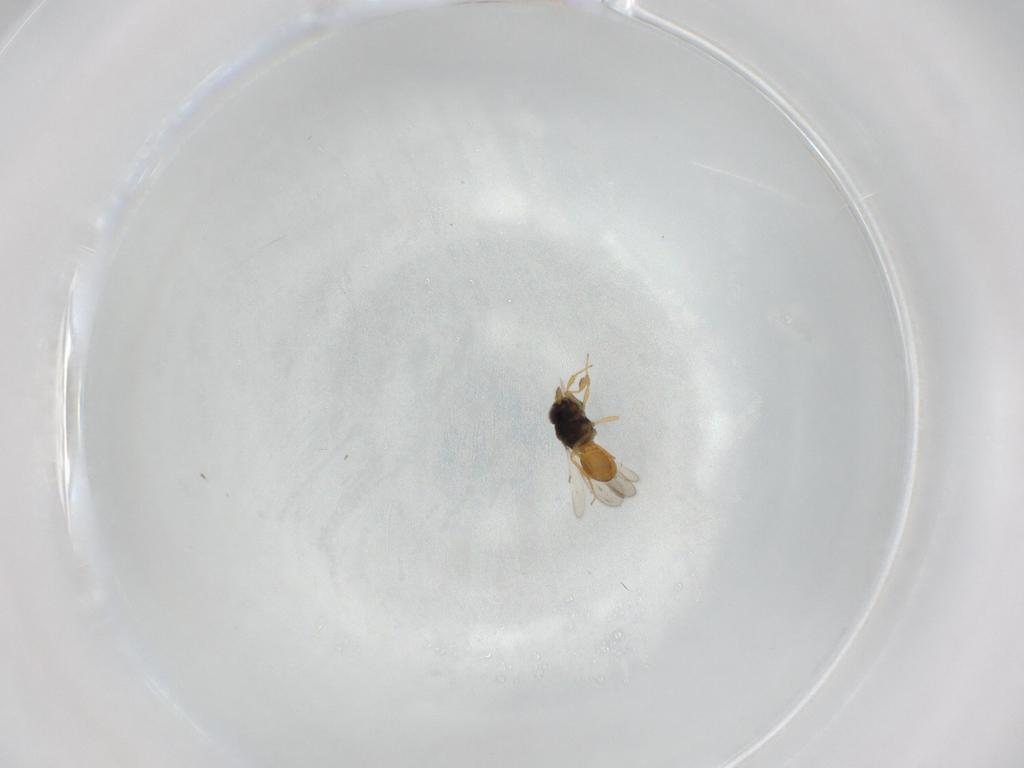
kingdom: Animalia
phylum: Arthropoda
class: Insecta
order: Hymenoptera
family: Scelionidae
